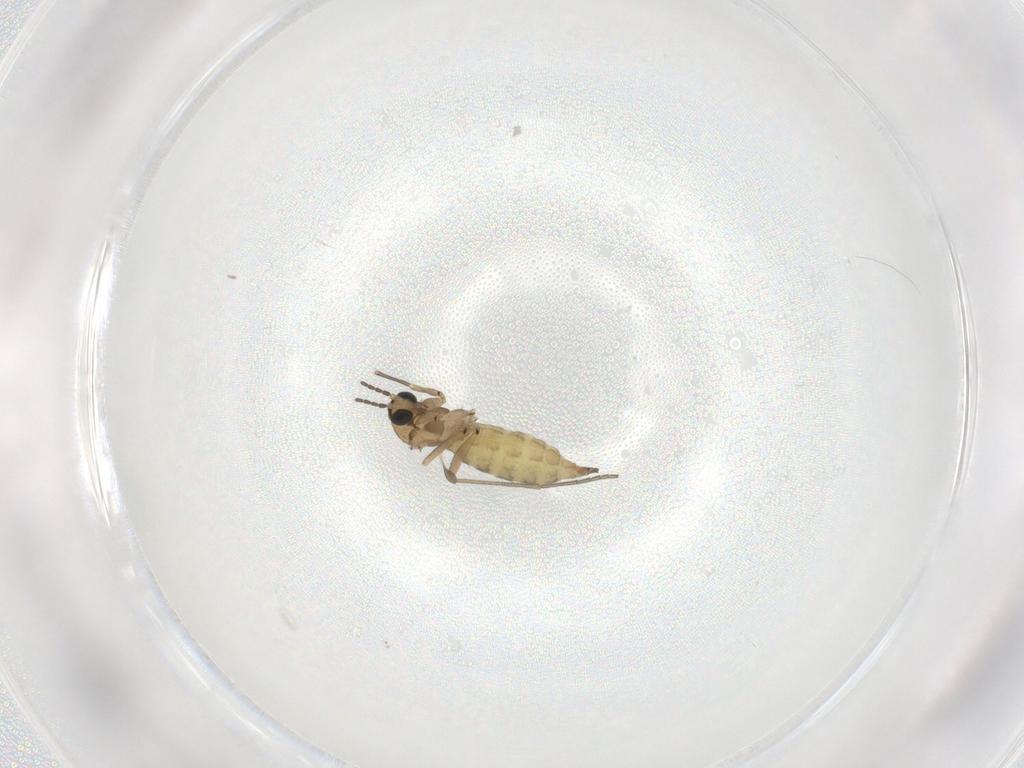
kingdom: Animalia
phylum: Arthropoda
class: Insecta
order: Diptera
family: Sciaridae
